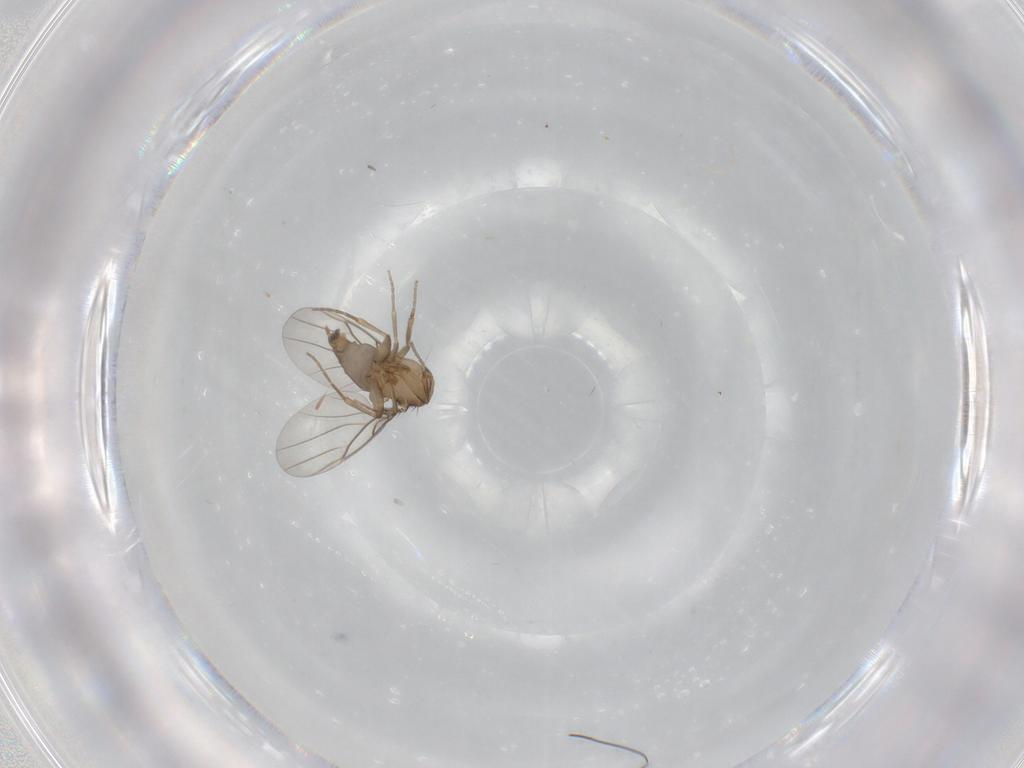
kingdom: Animalia
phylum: Arthropoda
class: Insecta
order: Diptera
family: Phoridae
